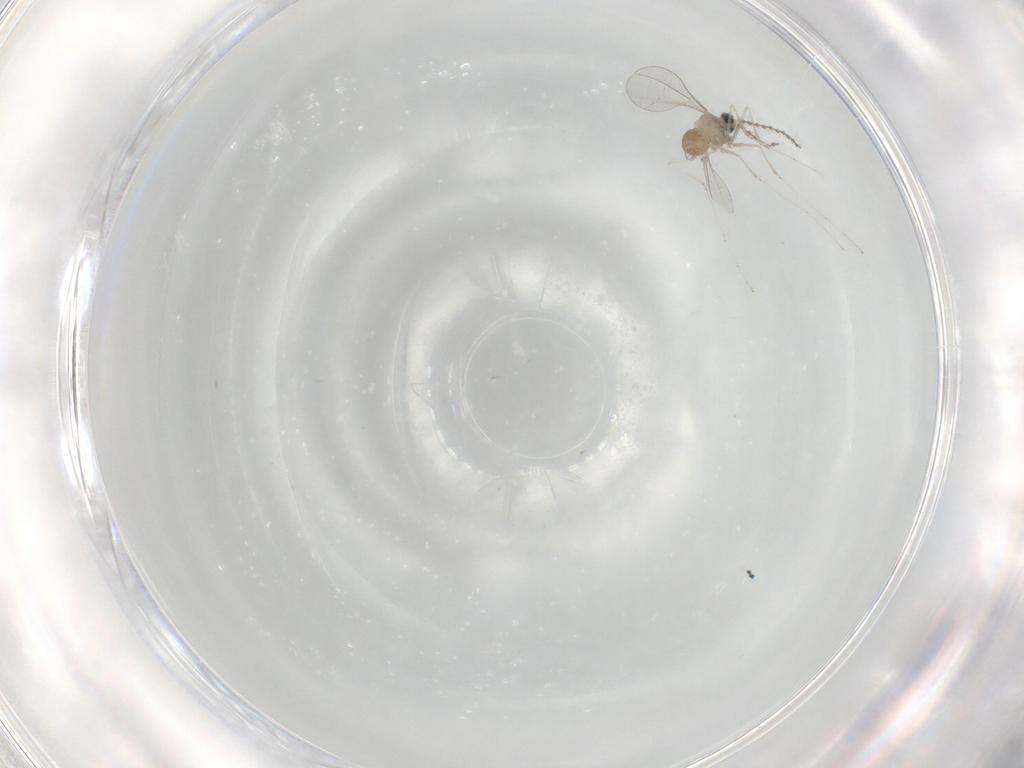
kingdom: Animalia
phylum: Arthropoda
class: Insecta
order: Diptera
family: Cecidomyiidae
